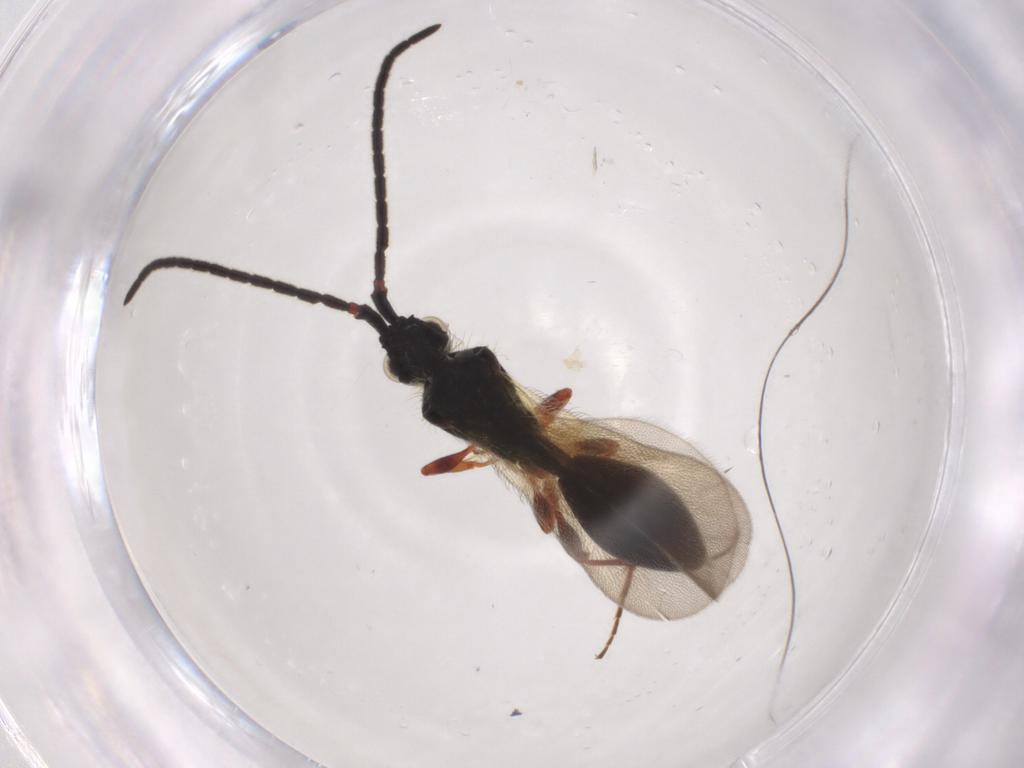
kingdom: Animalia
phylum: Arthropoda
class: Insecta
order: Hymenoptera
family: Diapriidae
